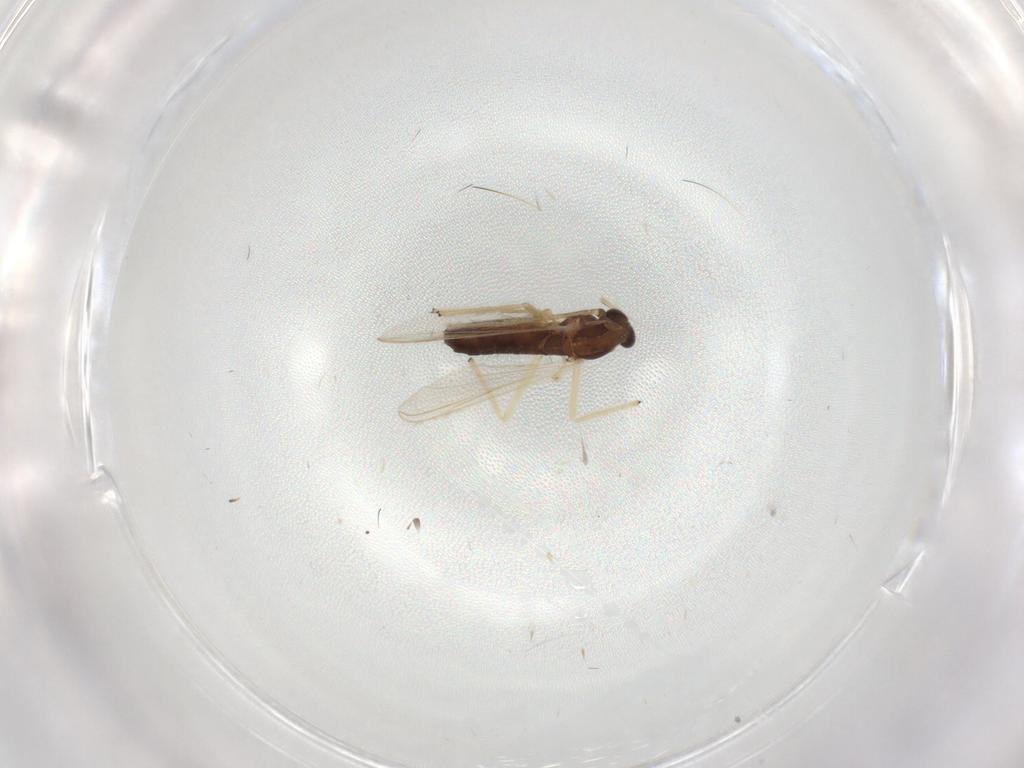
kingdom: Animalia
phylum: Arthropoda
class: Insecta
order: Diptera
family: Chironomidae
